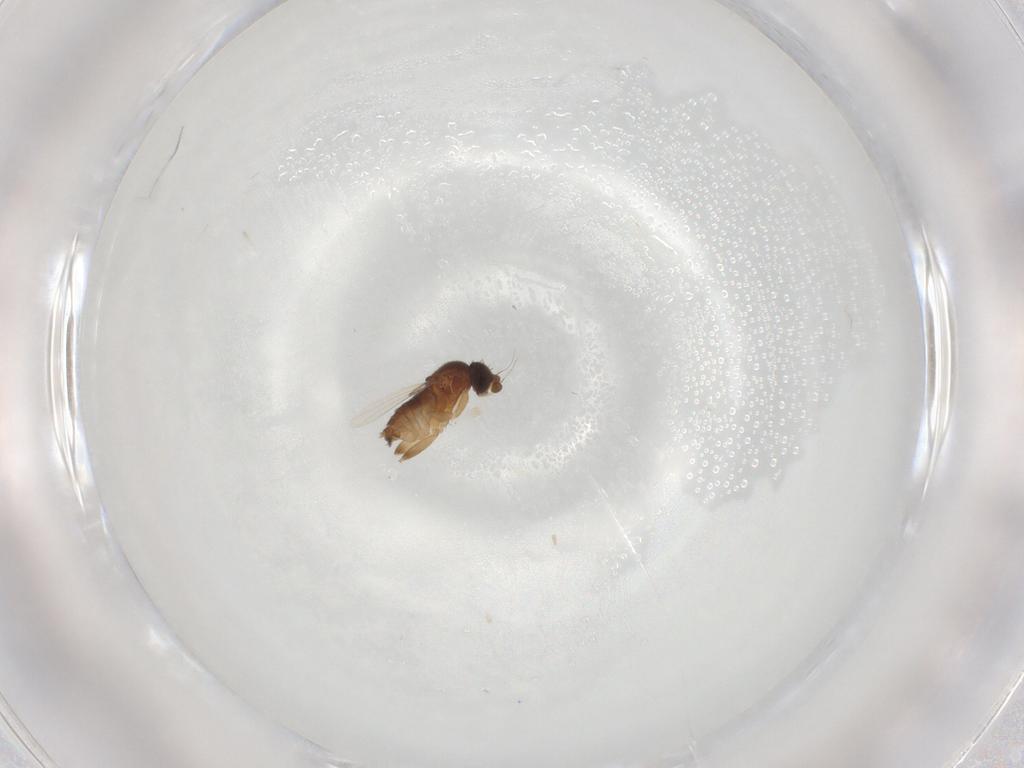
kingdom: Animalia
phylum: Arthropoda
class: Insecta
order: Diptera
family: Phoridae
